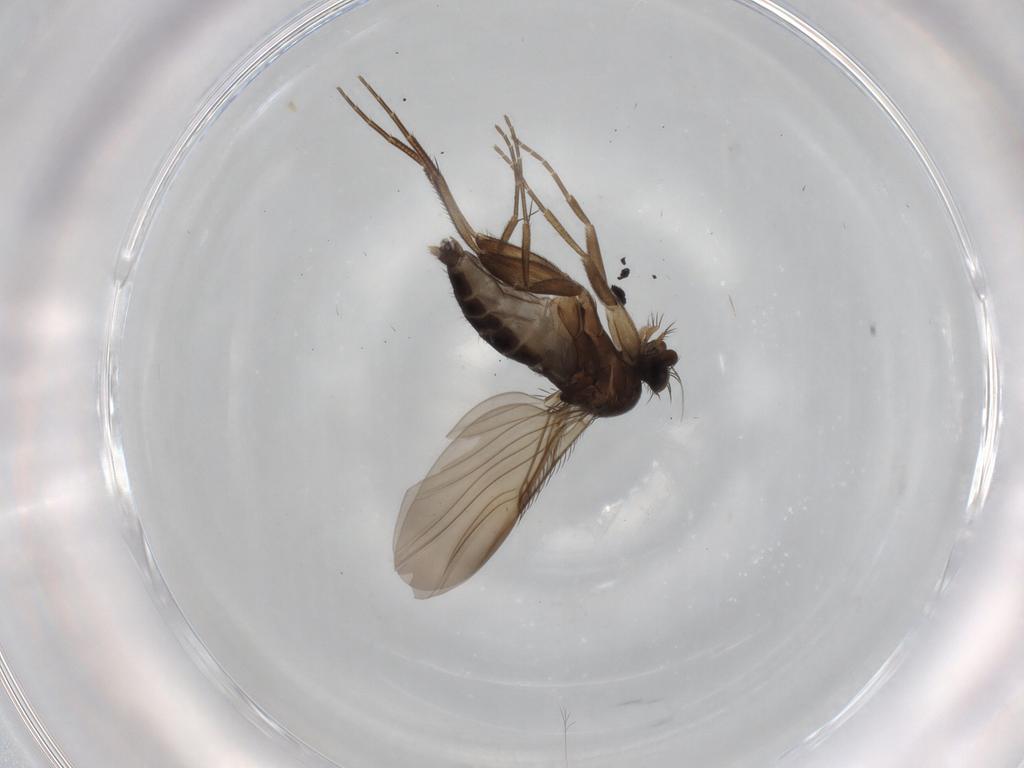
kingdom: Animalia
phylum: Arthropoda
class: Insecta
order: Diptera
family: Phoridae
